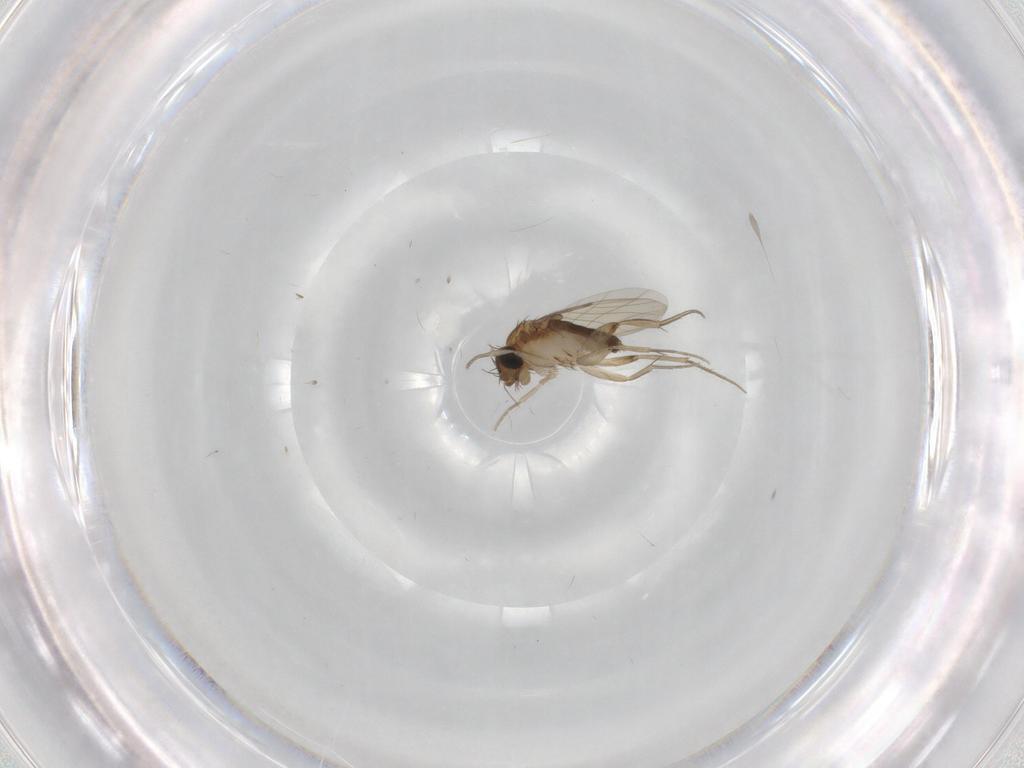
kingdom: Animalia
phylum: Arthropoda
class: Insecta
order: Diptera
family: Phoridae
